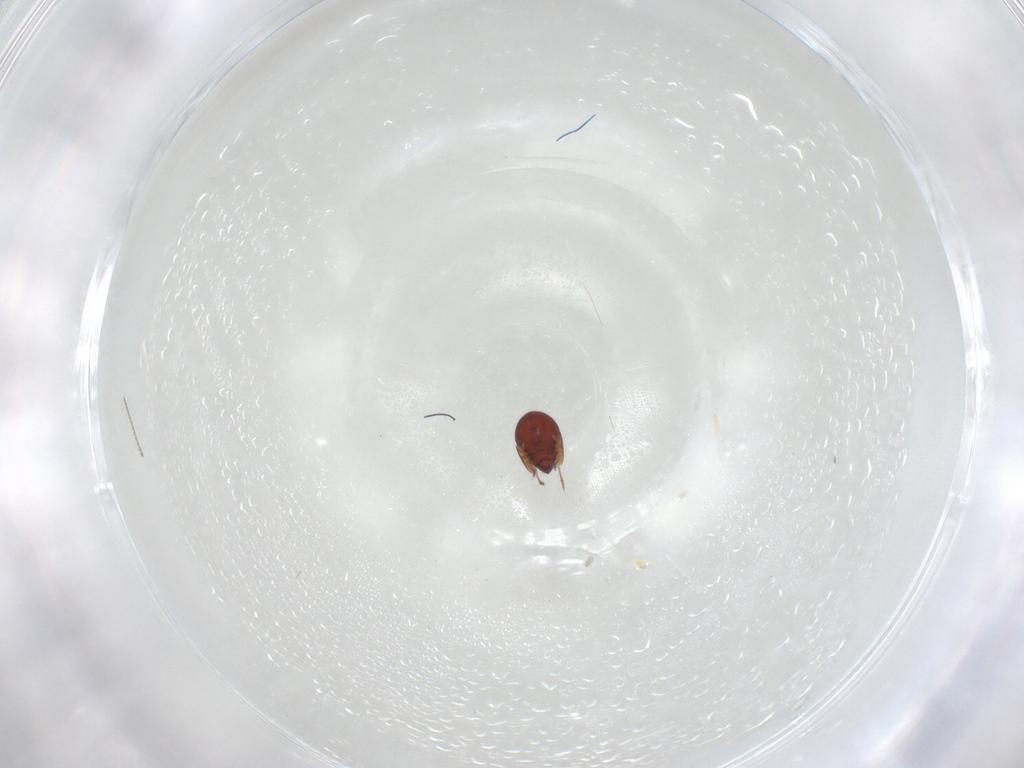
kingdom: Animalia
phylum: Arthropoda
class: Arachnida
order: Sarcoptiformes
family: Galumnidae
